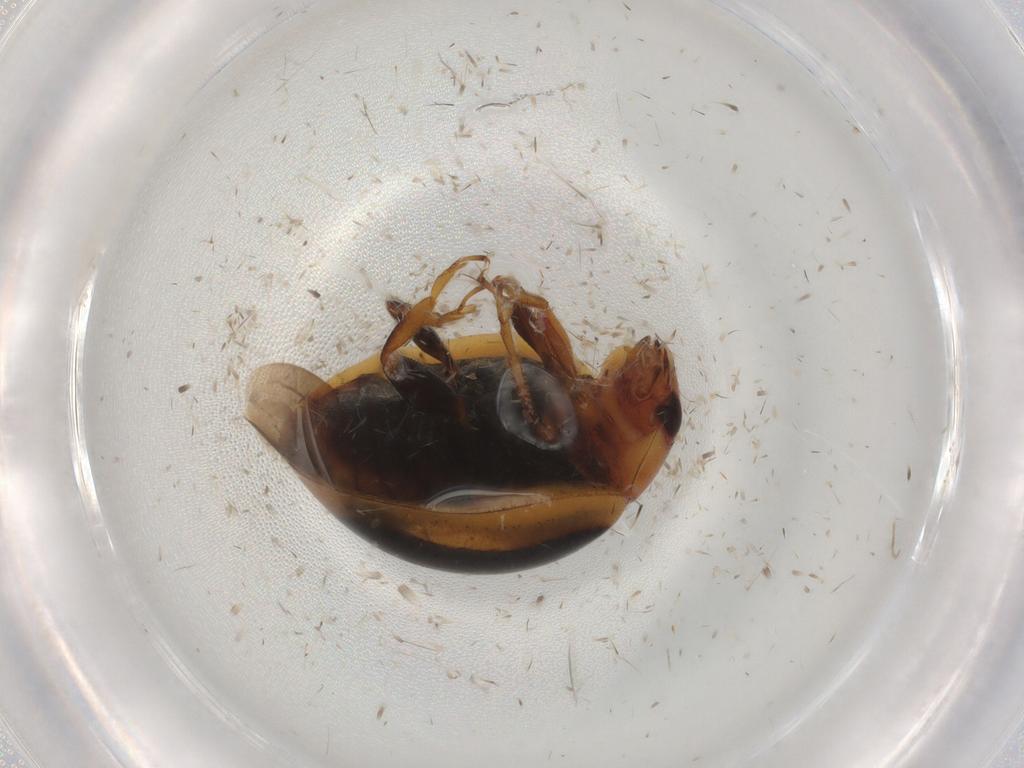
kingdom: Animalia
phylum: Arthropoda
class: Insecta
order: Coleoptera
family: Coccinellidae
